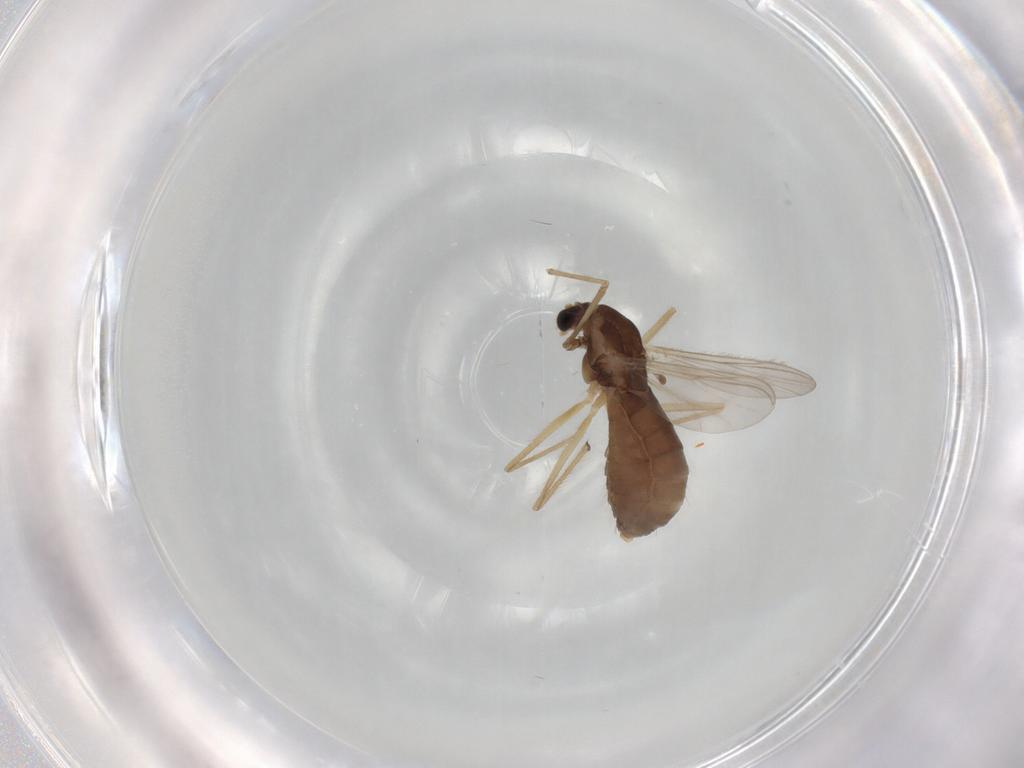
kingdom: Animalia
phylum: Arthropoda
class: Insecta
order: Diptera
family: Chironomidae
